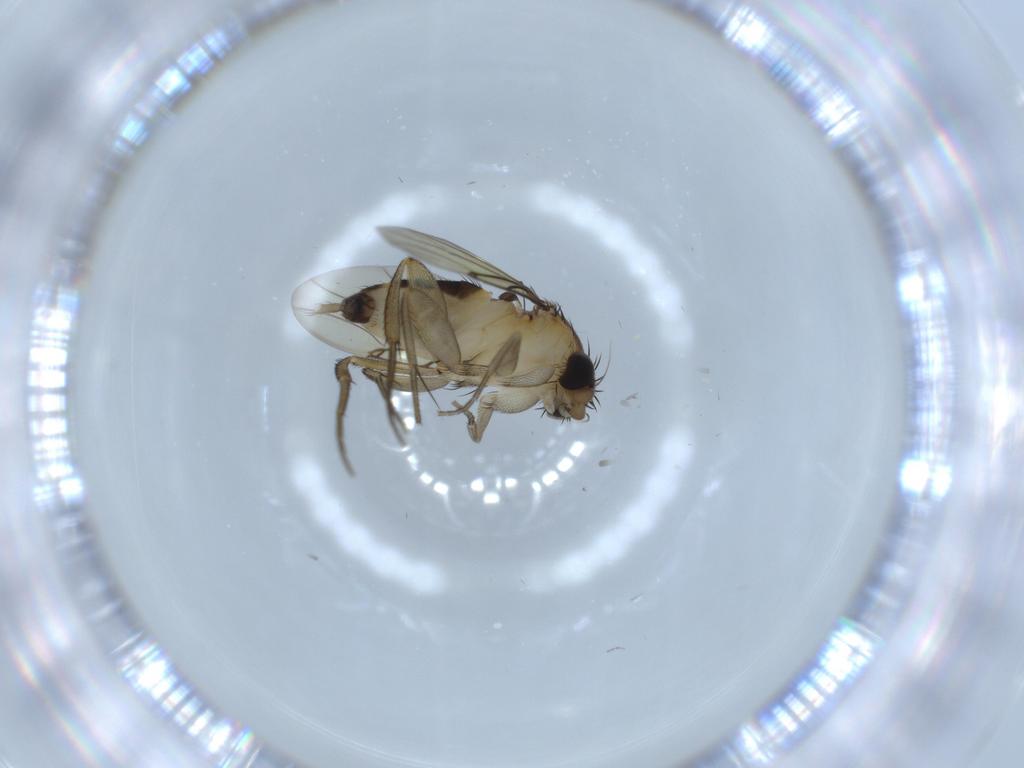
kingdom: Animalia
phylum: Arthropoda
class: Insecta
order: Diptera
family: Phoridae
